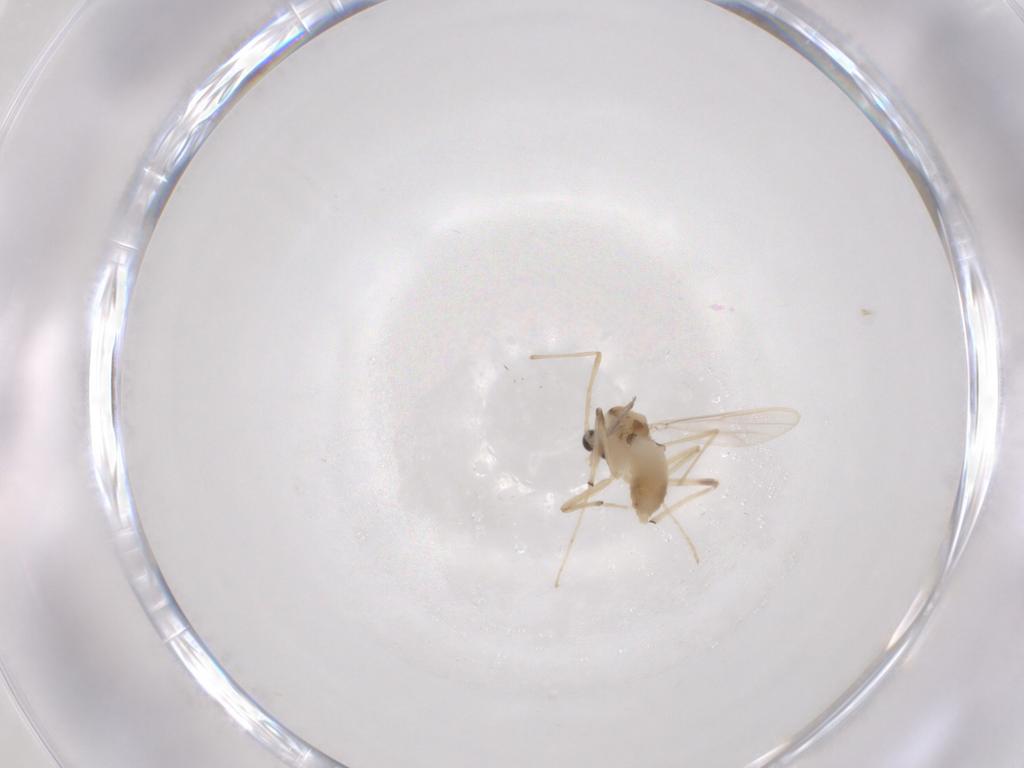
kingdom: Animalia
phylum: Arthropoda
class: Insecta
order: Diptera
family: Chironomidae
